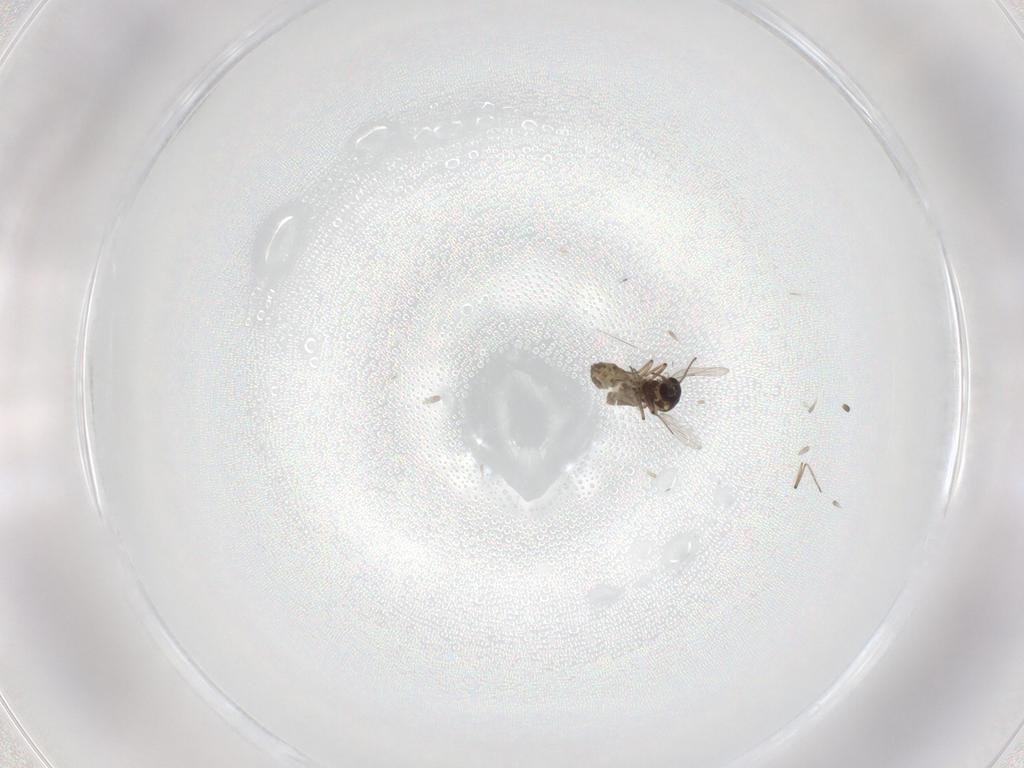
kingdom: Animalia
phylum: Arthropoda
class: Insecta
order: Diptera
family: Ceratopogonidae
